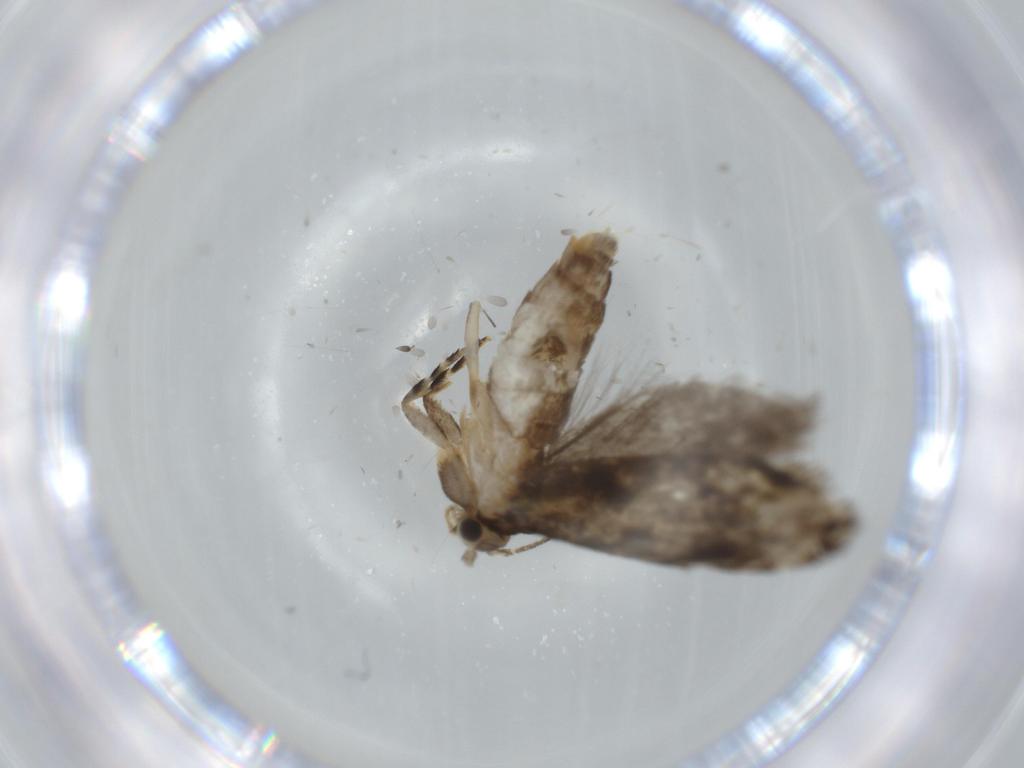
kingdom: Animalia
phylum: Arthropoda
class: Insecta
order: Lepidoptera
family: Tineidae
